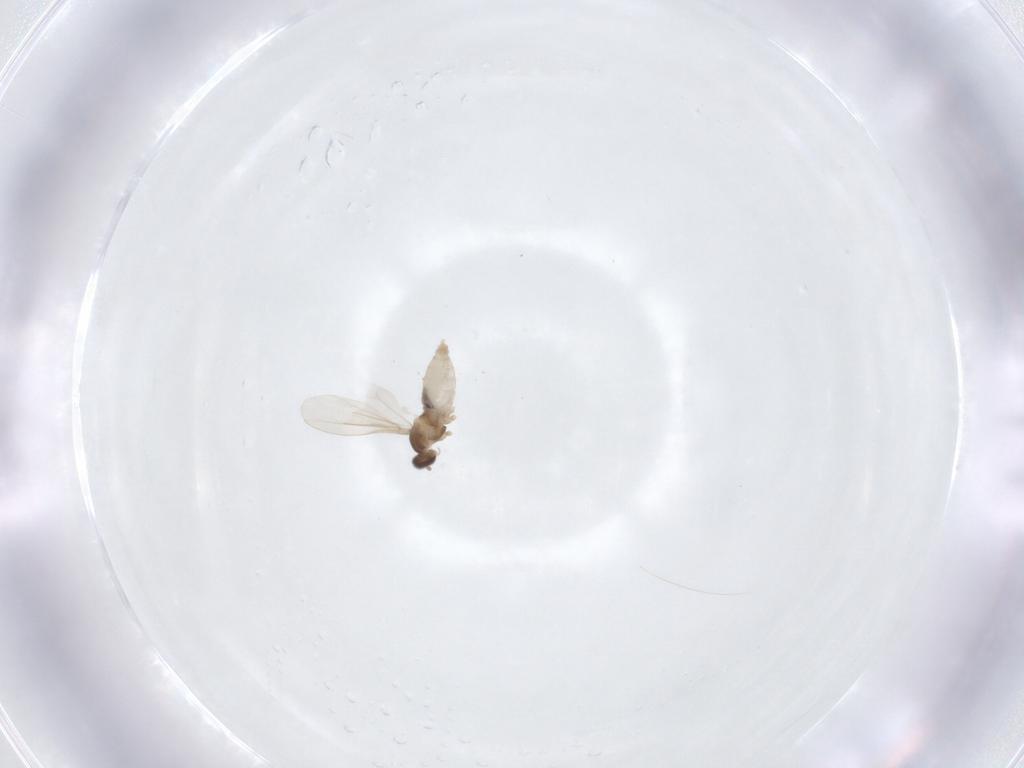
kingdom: Animalia
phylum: Arthropoda
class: Insecta
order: Diptera
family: Cecidomyiidae
